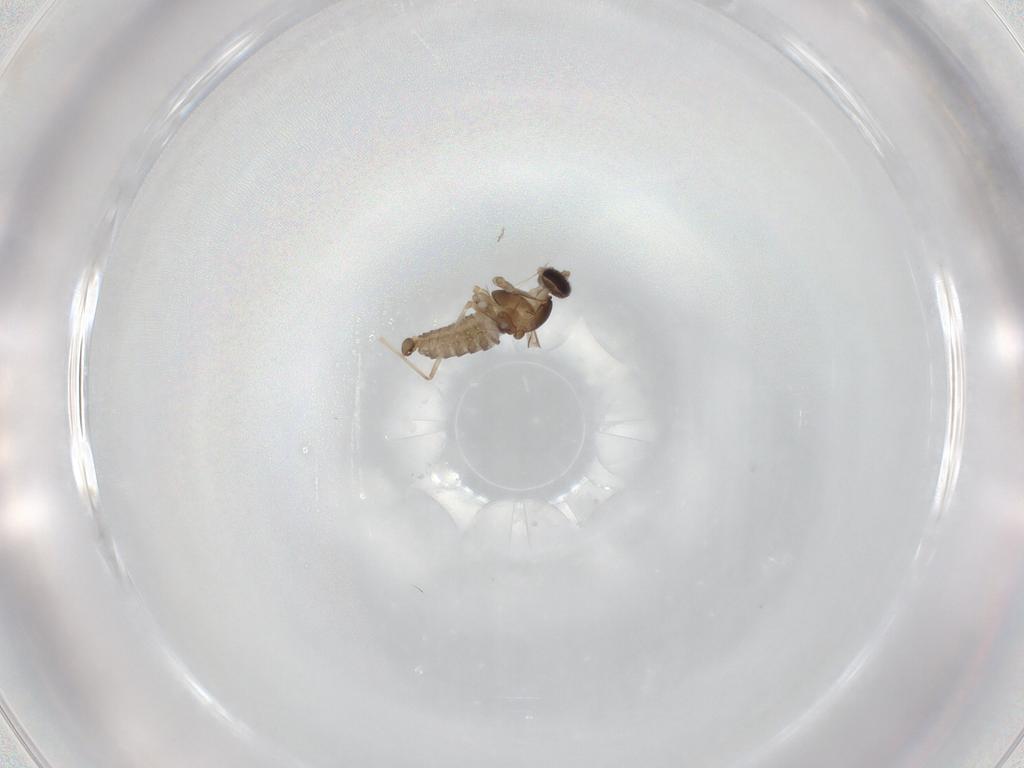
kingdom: Animalia
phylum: Arthropoda
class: Insecta
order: Diptera
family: Cecidomyiidae
